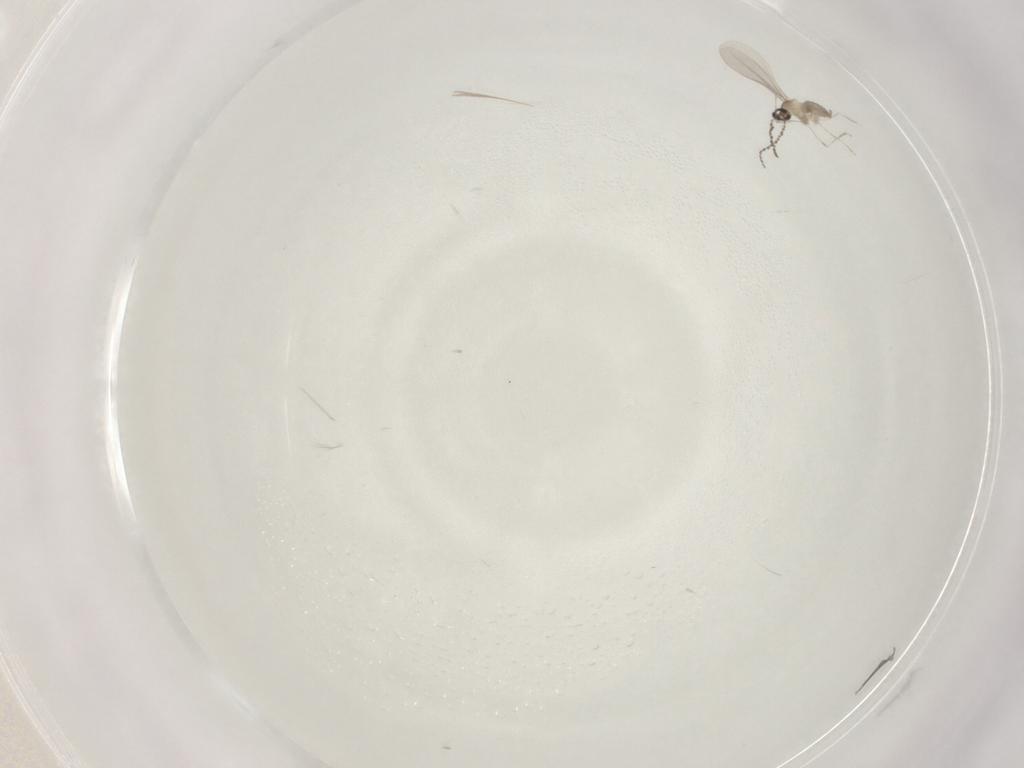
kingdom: Animalia
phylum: Arthropoda
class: Insecta
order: Diptera
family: Cecidomyiidae
